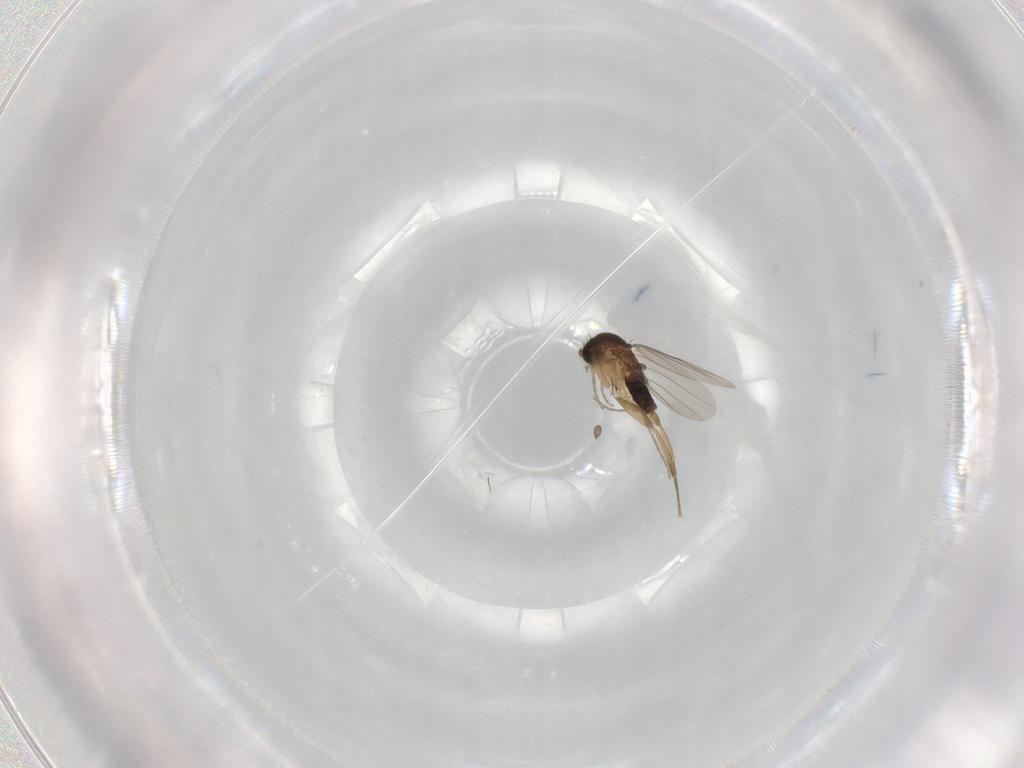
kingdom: Animalia
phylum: Arthropoda
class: Insecta
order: Diptera
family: Phoridae
